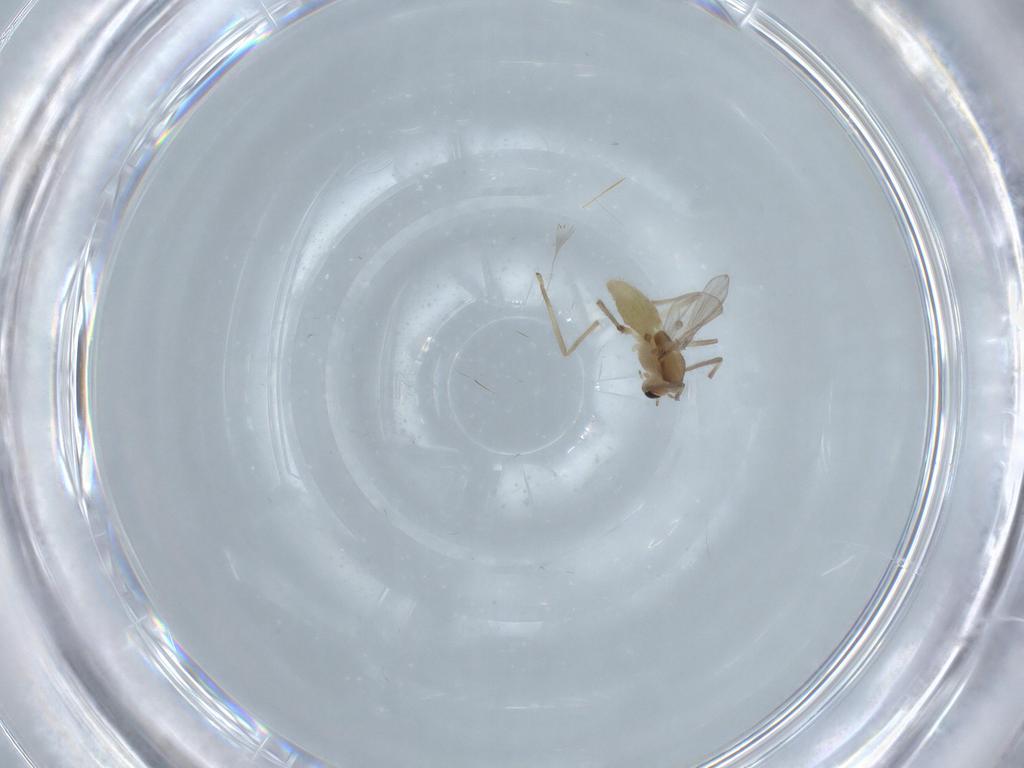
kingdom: Animalia
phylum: Arthropoda
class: Insecta
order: Diptera
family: Chironomidae
